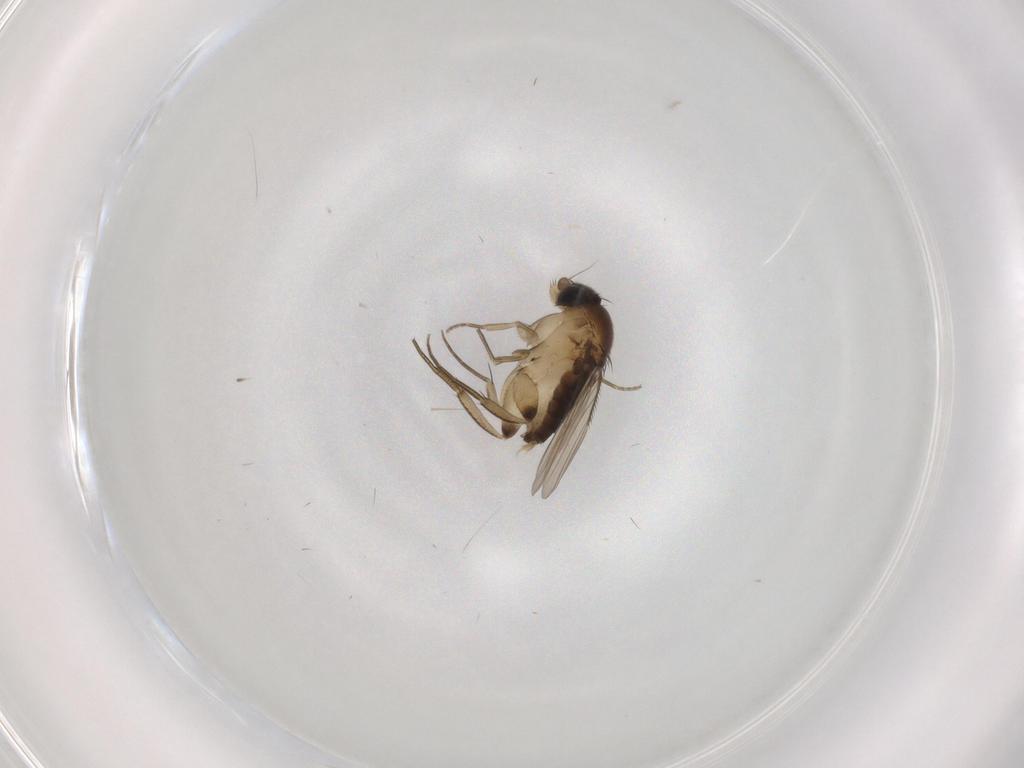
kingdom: Animalia
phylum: Arthropoda
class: Insecta
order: Diptera
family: Phoridae
